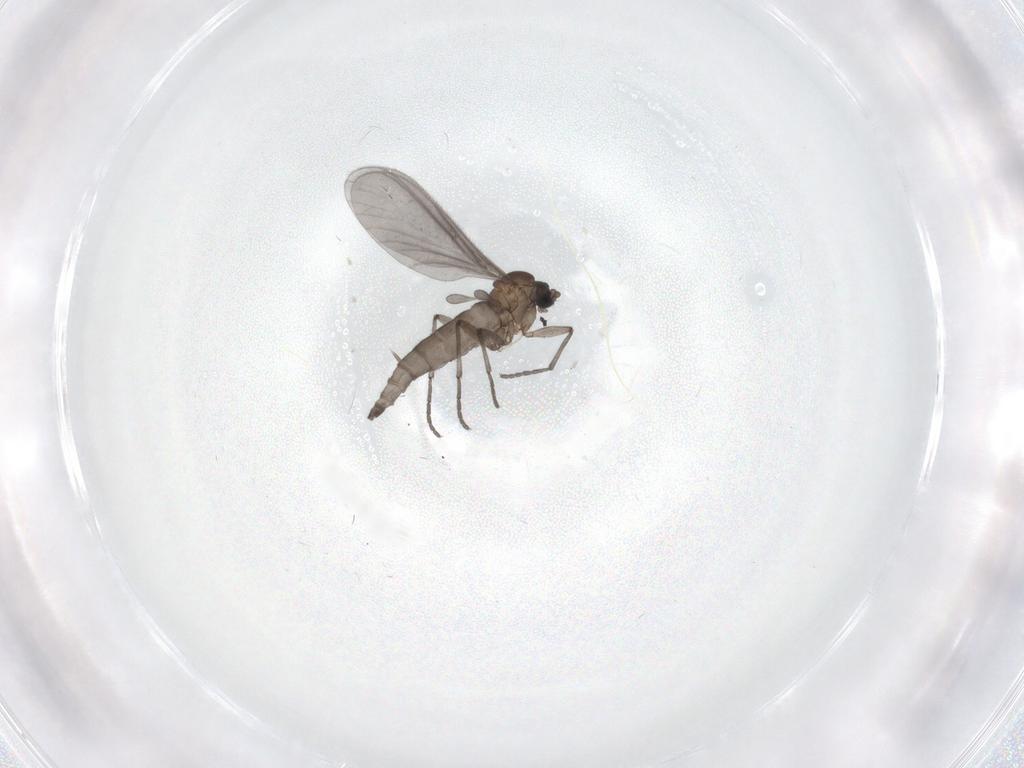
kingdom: Animalia
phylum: Arthropoda
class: Insecta
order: Diptera
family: Sciaridae
